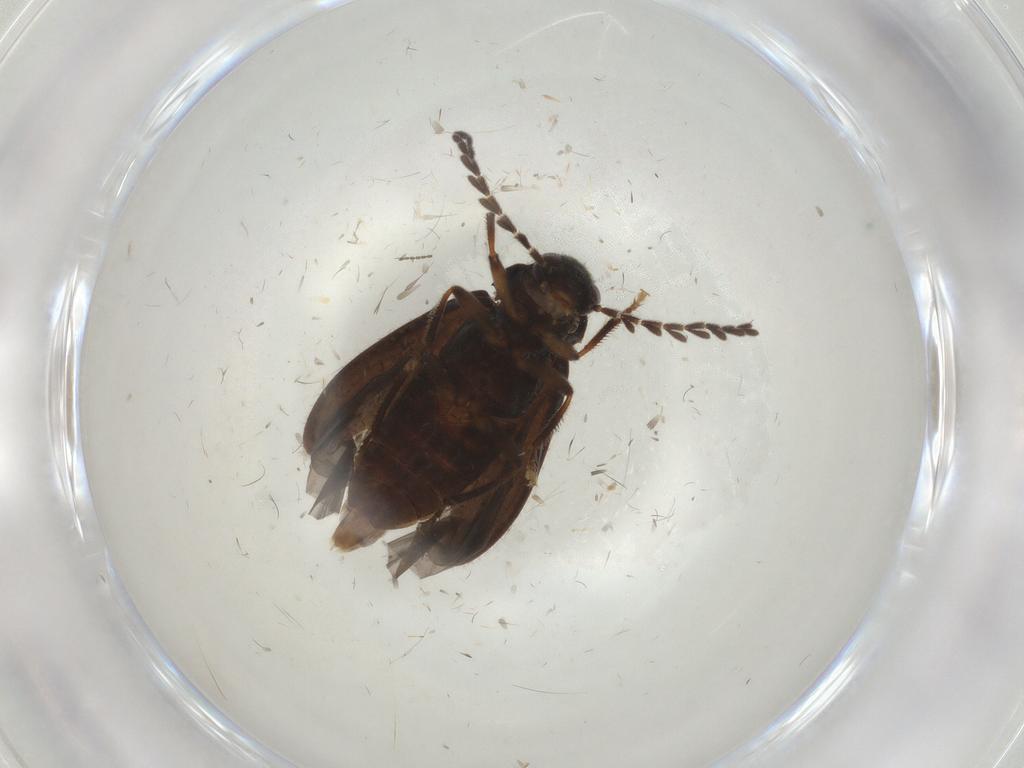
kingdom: Animalia
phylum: Arthropoda
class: Insecta
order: Coleoptera
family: Ptilodactylidae
